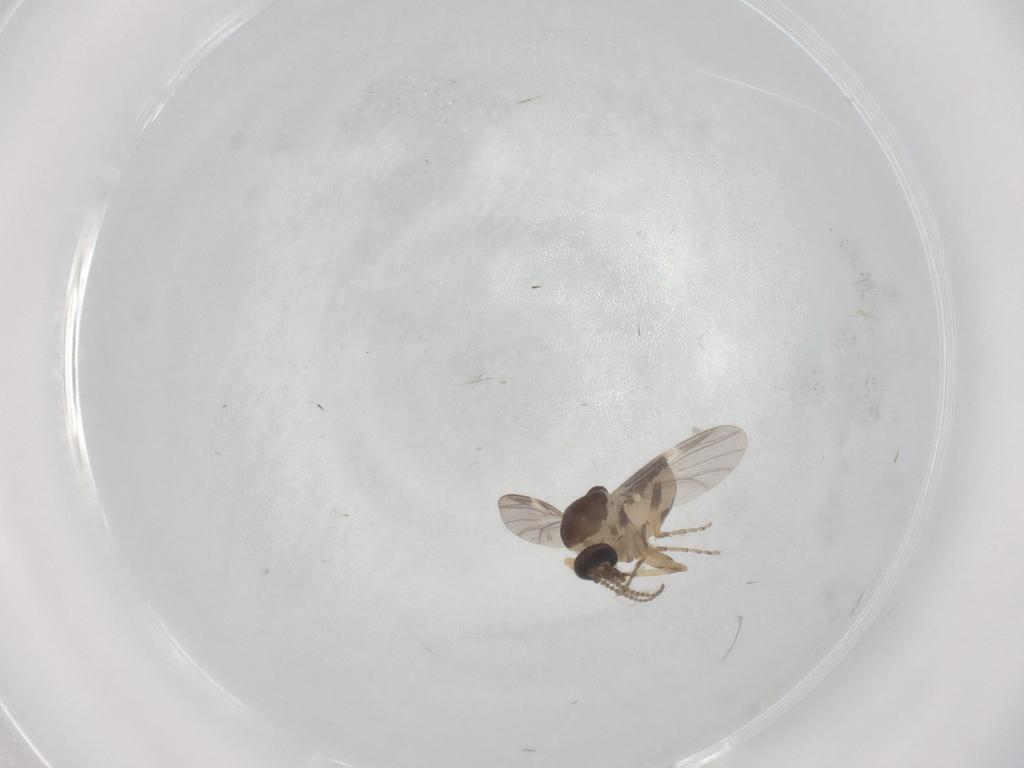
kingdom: Animalia
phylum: Arthropoda
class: Insecta
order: Diptera
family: Ceratopogonidae
